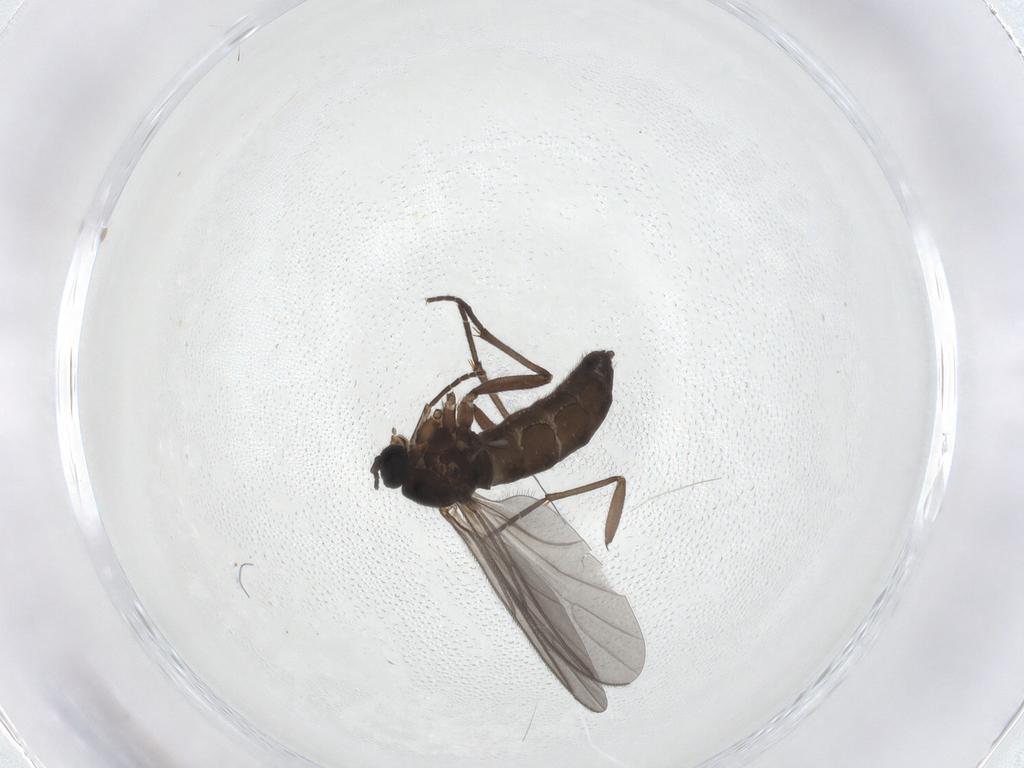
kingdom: Animalia
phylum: Arthropoda
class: Insecta
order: Diptera
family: Sciaridae
